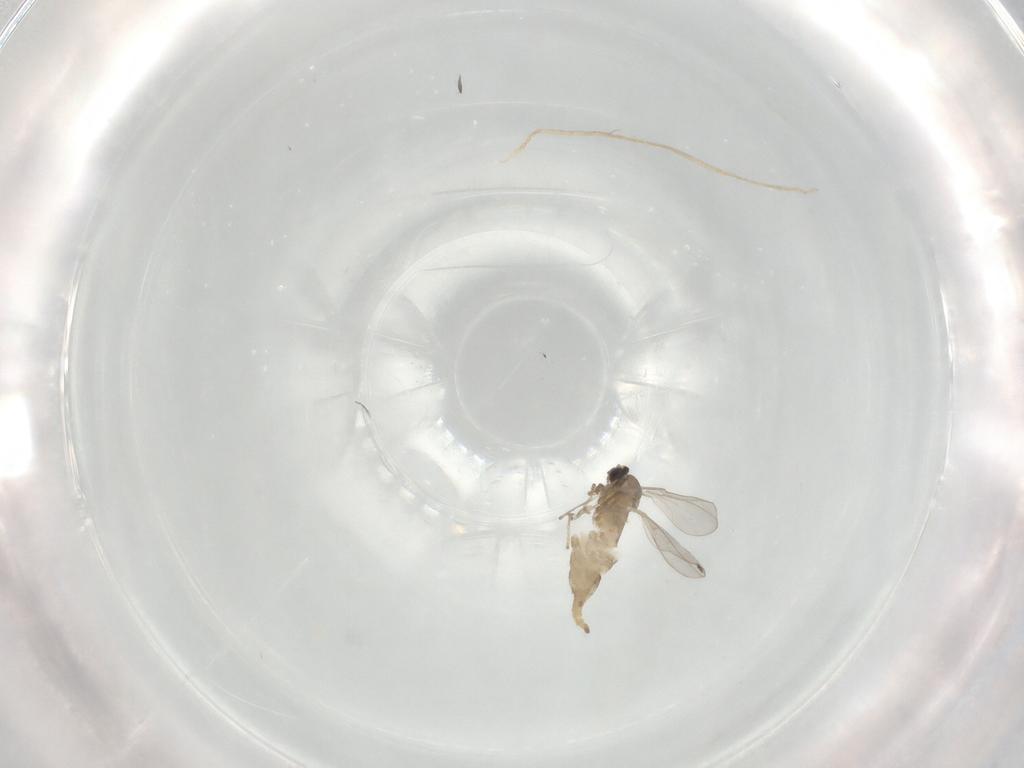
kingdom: Animalia
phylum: Arthropoda
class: Insecta
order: Diptera
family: Cecidomyiidae
